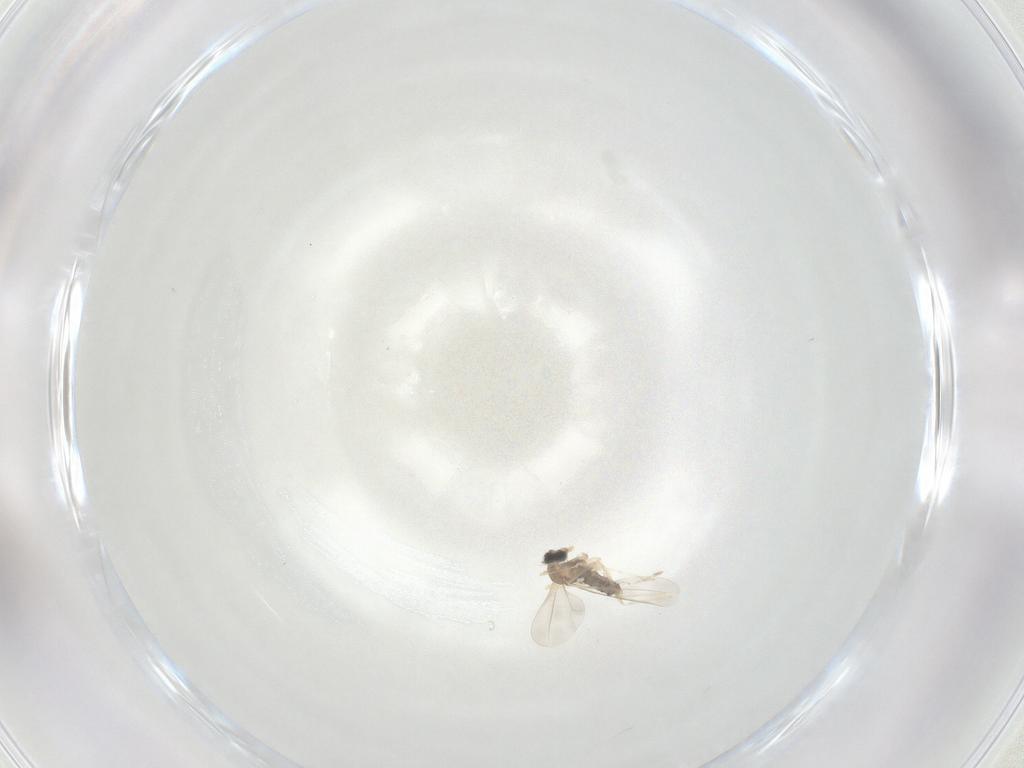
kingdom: Animalia
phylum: Arthropoda
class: Insecta
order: Diptera
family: Cecidomyiidae
